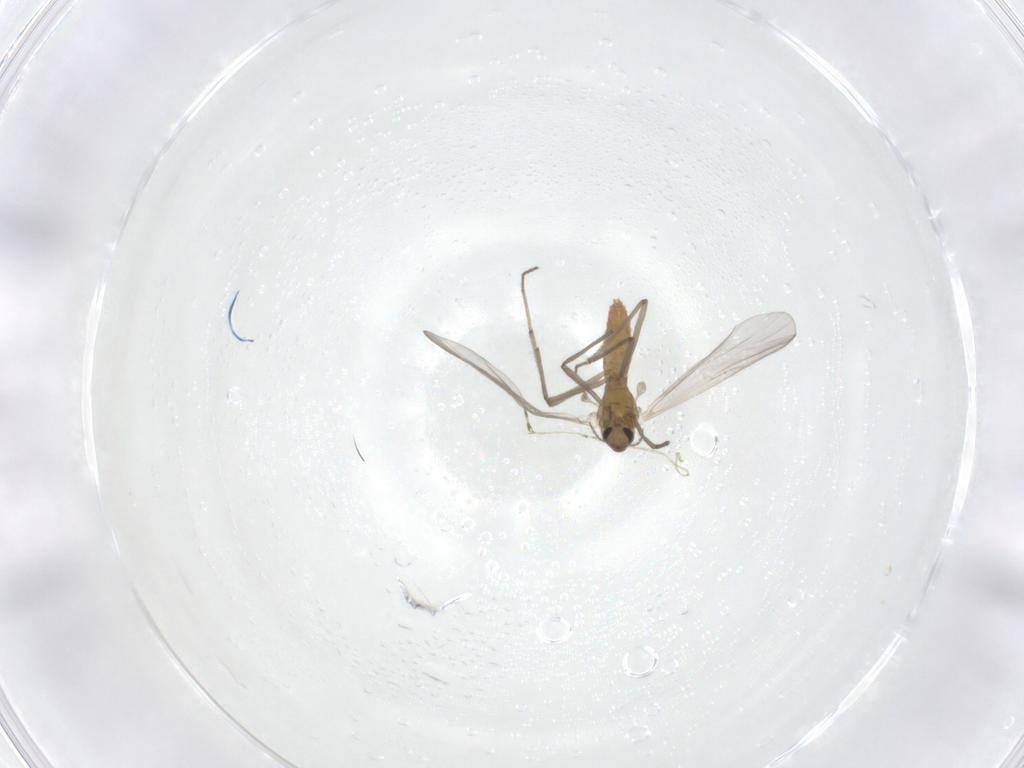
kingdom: Animalia
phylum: Arthropoda
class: Insecta
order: Diptera
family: Chironomidae
